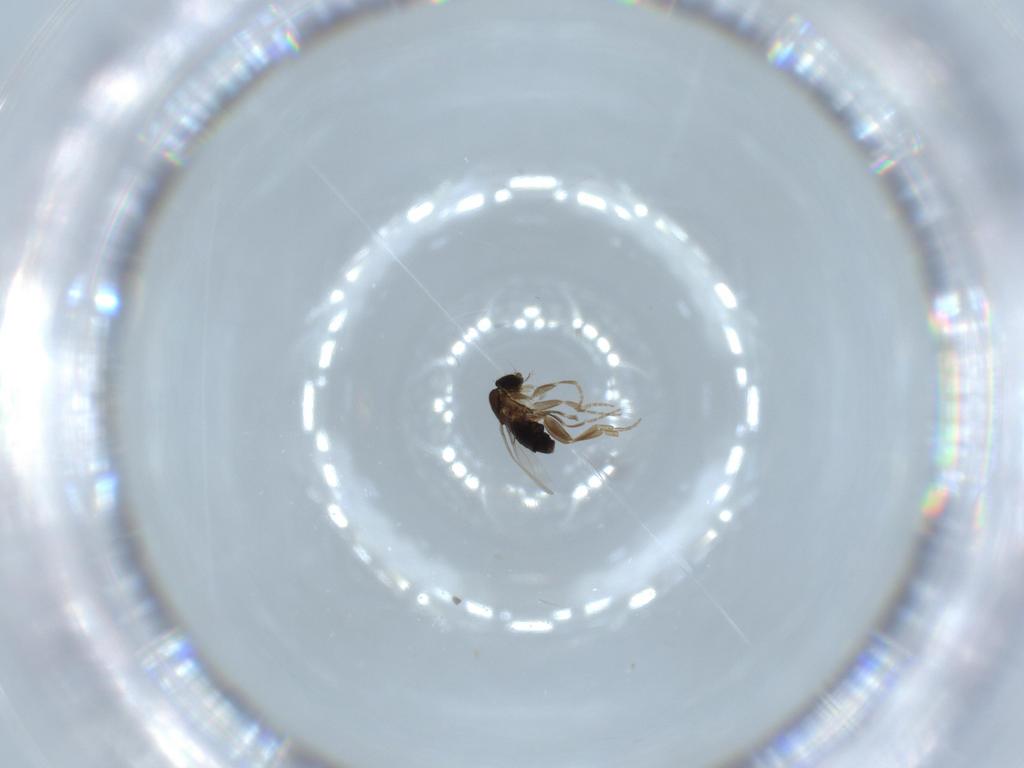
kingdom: Animalia
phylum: Arthropoda
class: Insecta
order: Diptera
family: Phoridae
